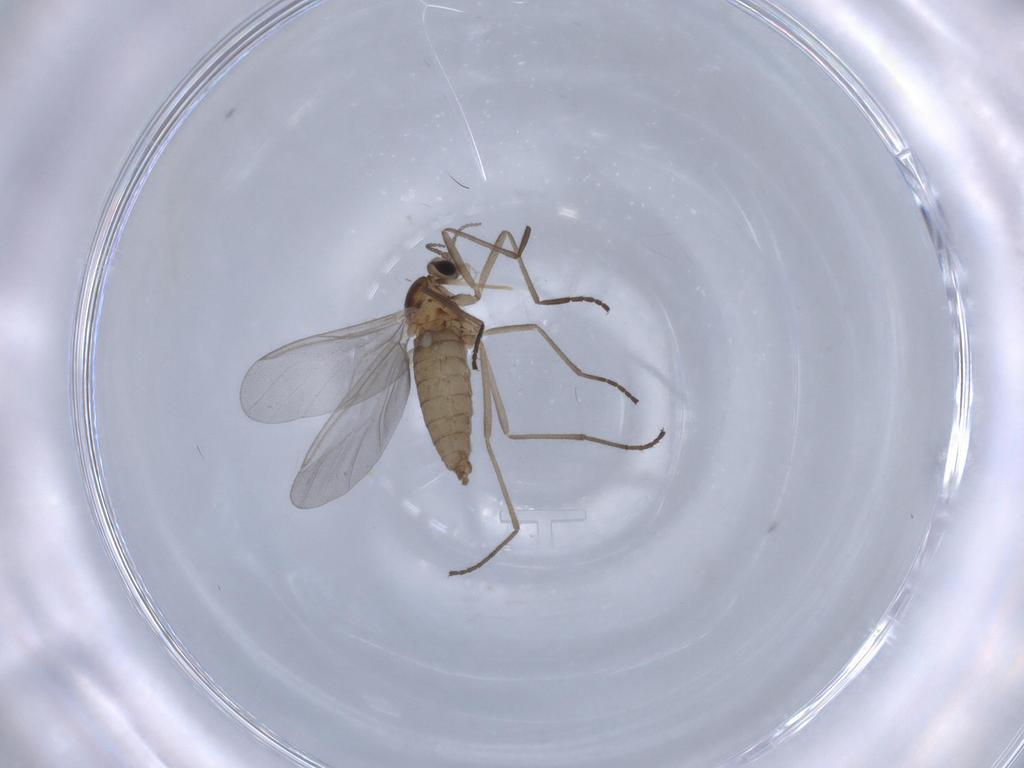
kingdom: Animalia
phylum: Arthropoda
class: Insecta
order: Diptera
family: Cecidomyiidae
